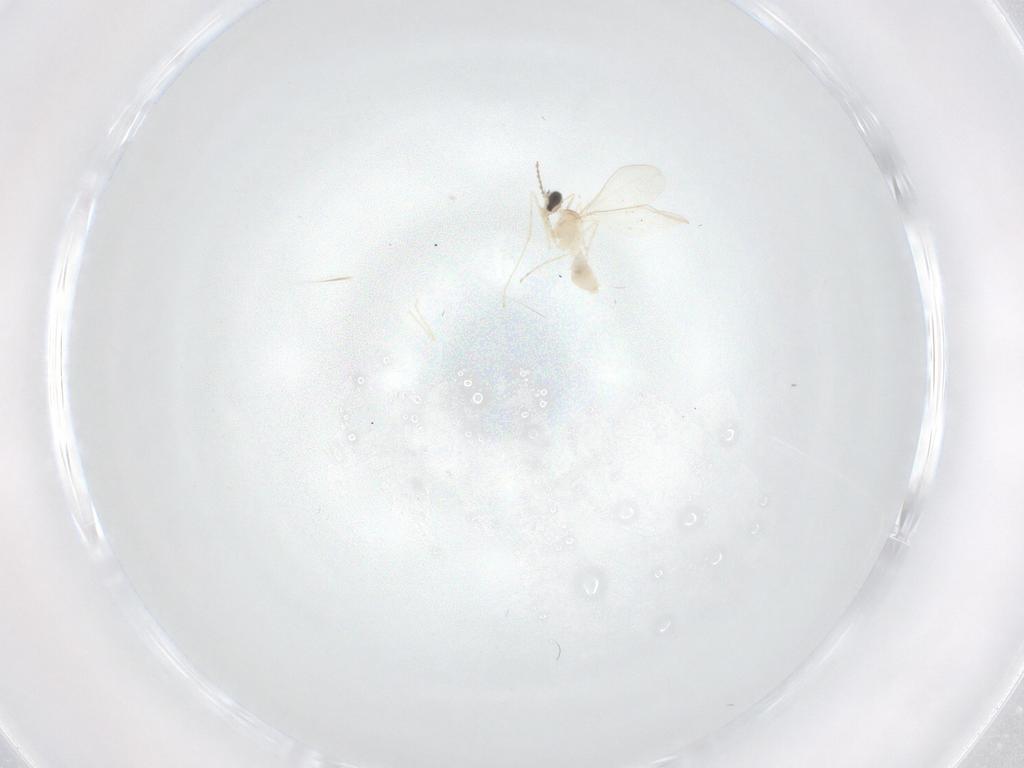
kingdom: Animalia
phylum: Arthropoda
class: Insecta
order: Diptera
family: Cecidomyiidae
